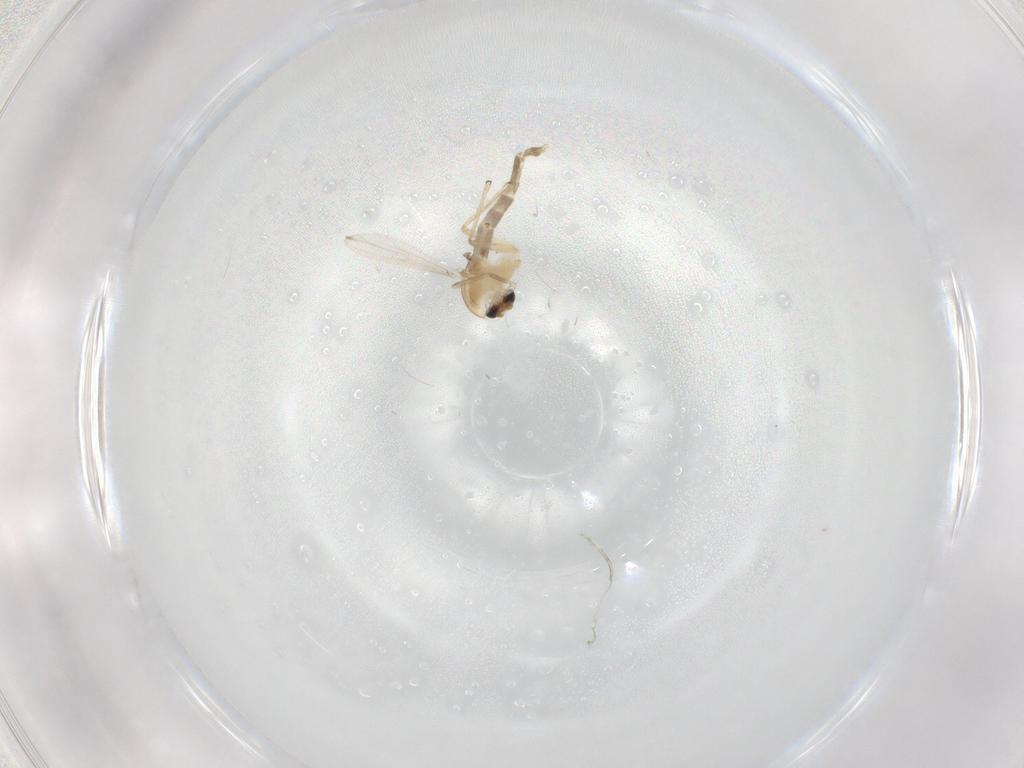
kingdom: Animalia
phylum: Arthropoda
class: Insecta
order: Diptera
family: Chironomidae
